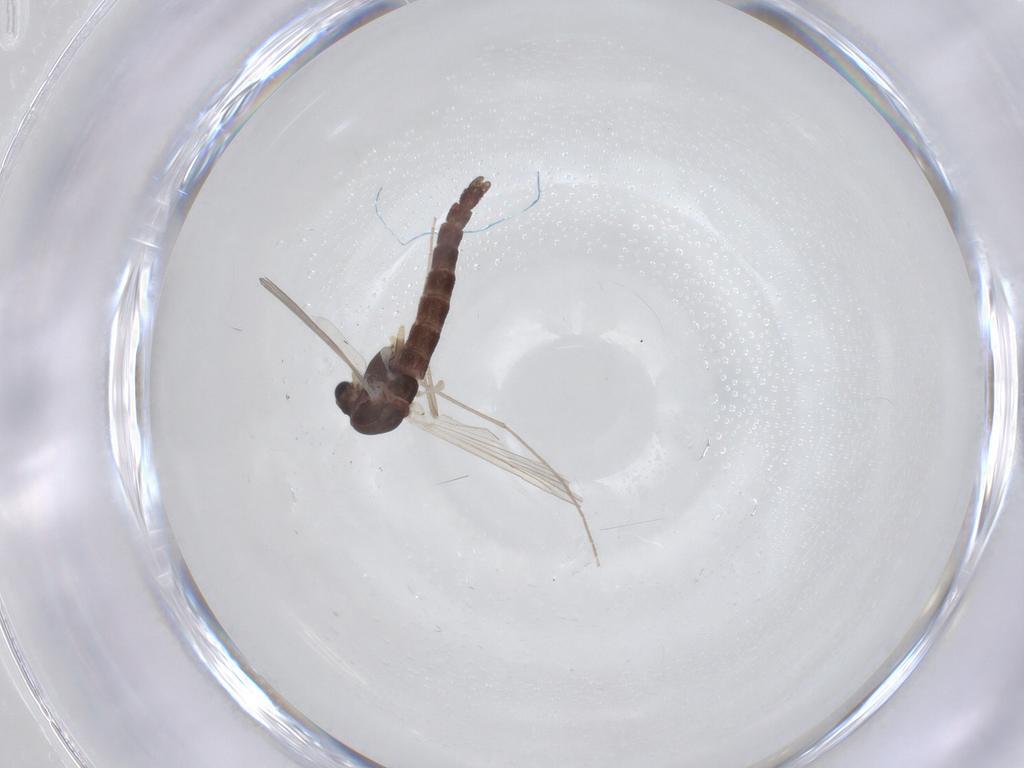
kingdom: Animalia
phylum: Arthropoda
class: Insecta
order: Diptera
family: Chironomidae
